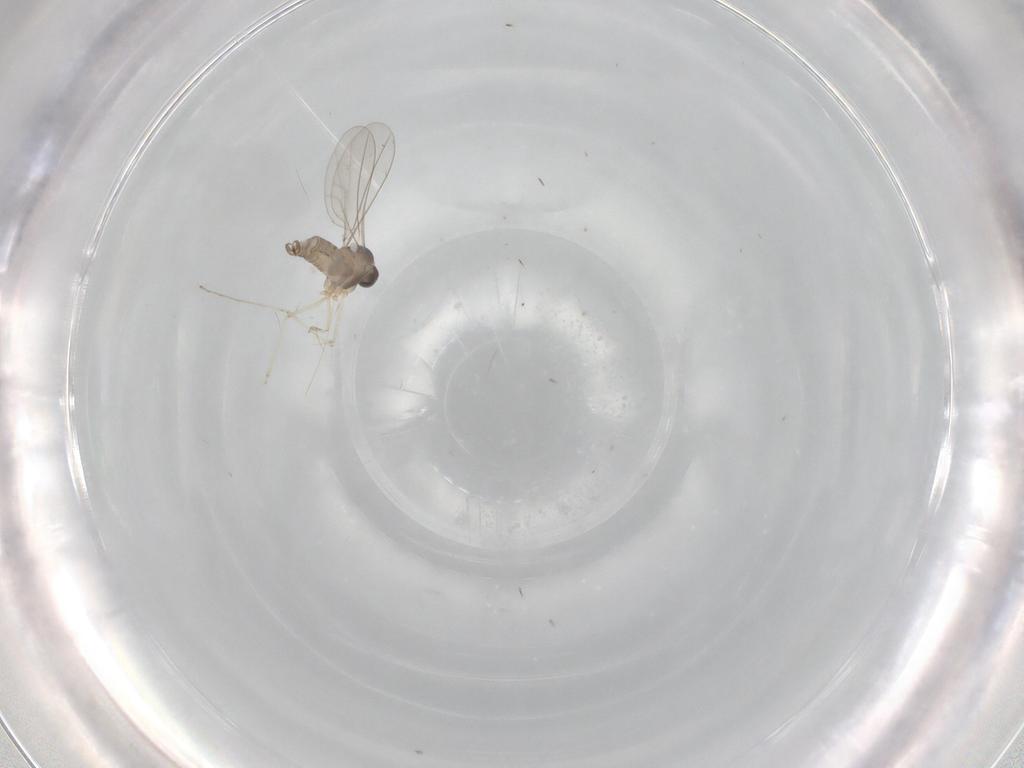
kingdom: Animalia
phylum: Arthropoda
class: Insecta
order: Diptera
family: Cecidomyiidae
